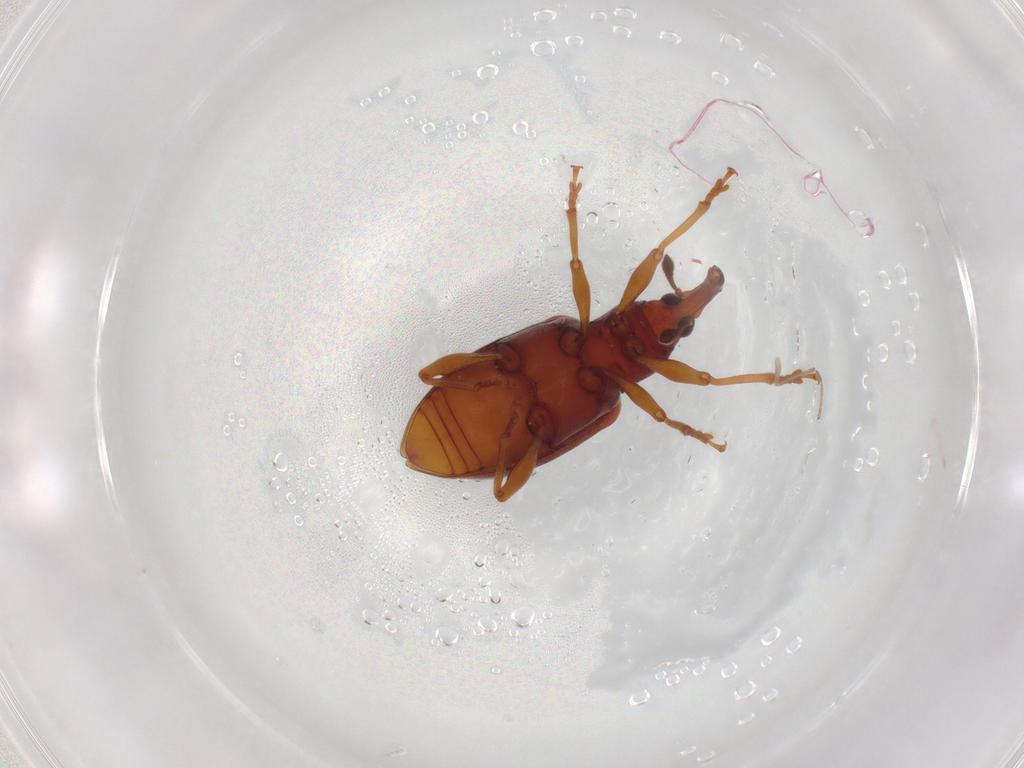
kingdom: Animalia
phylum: Arthropoda
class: Insecta
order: Coleoptera
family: Curculionidae
